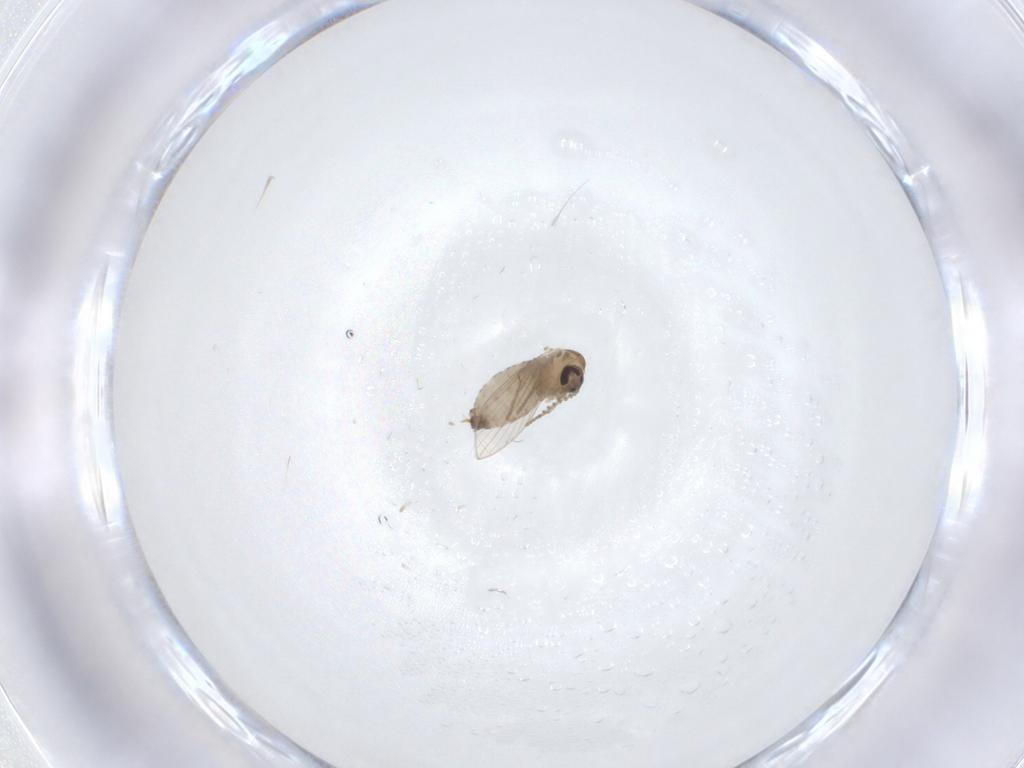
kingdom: Animalia
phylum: Arthropoda
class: Insecta
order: Diptera
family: Psychodidae
